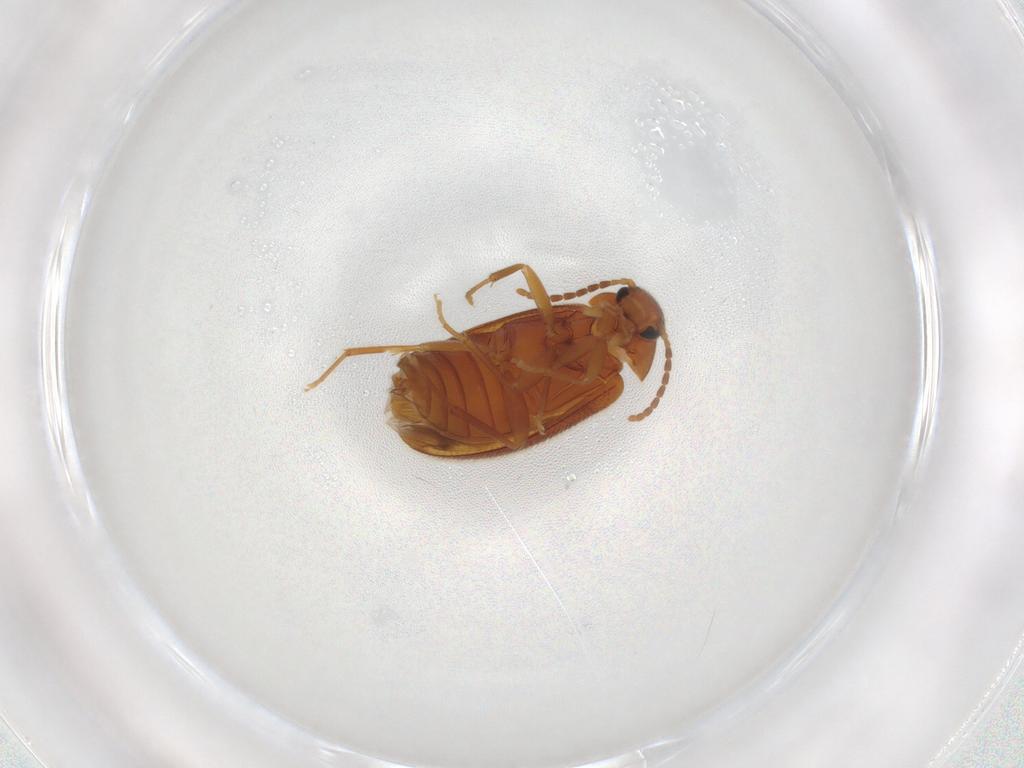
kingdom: Animalia
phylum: Arthropoda
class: Insecta
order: Coleoptera
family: Scraptiidae
